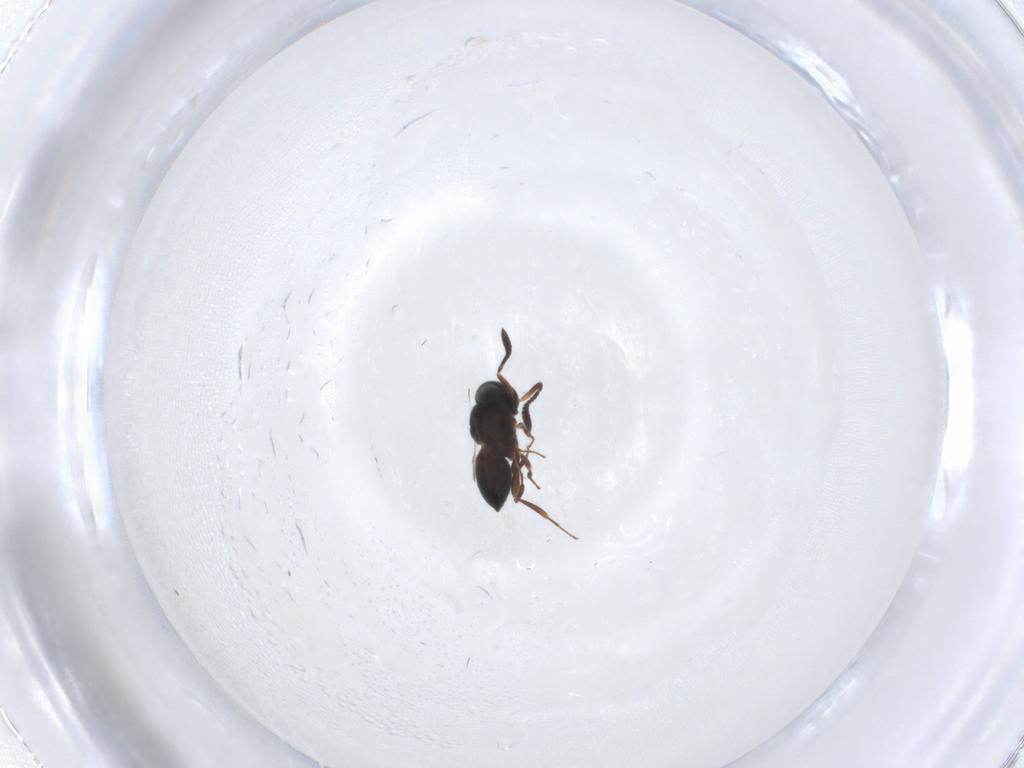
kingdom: Animalia
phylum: Arthropoda
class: Insecta
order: Hymenoptera
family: Scelionidae
